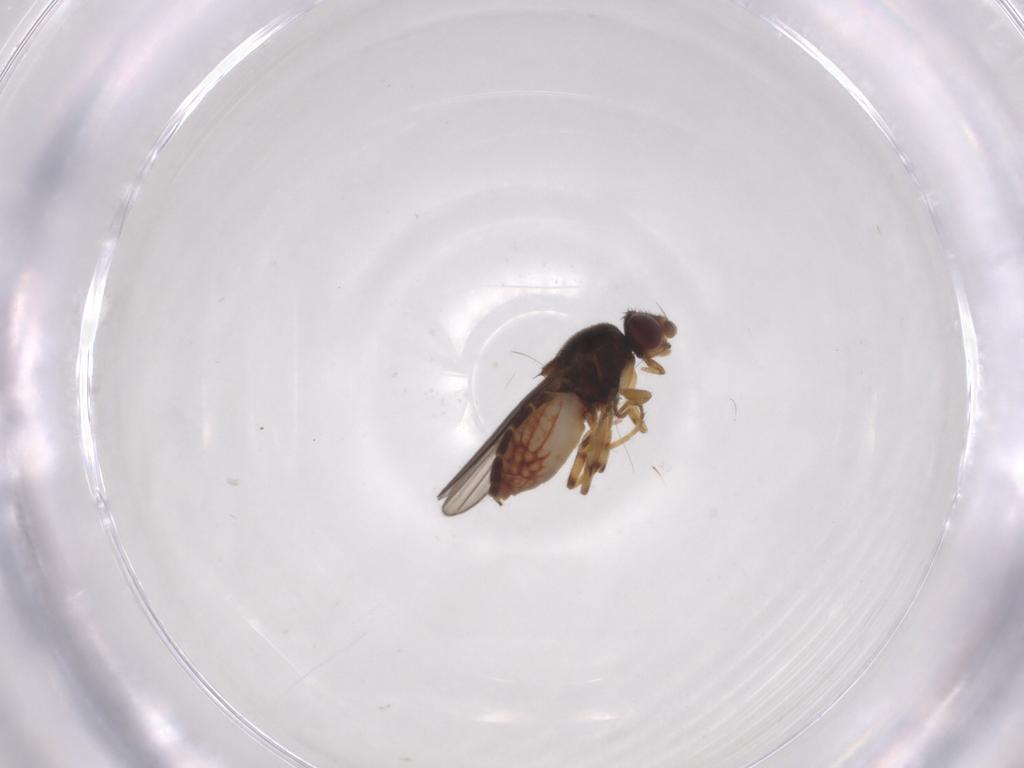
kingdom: Animalia
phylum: Arthropoda
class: Insecta
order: Diptera
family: Chloropidae
